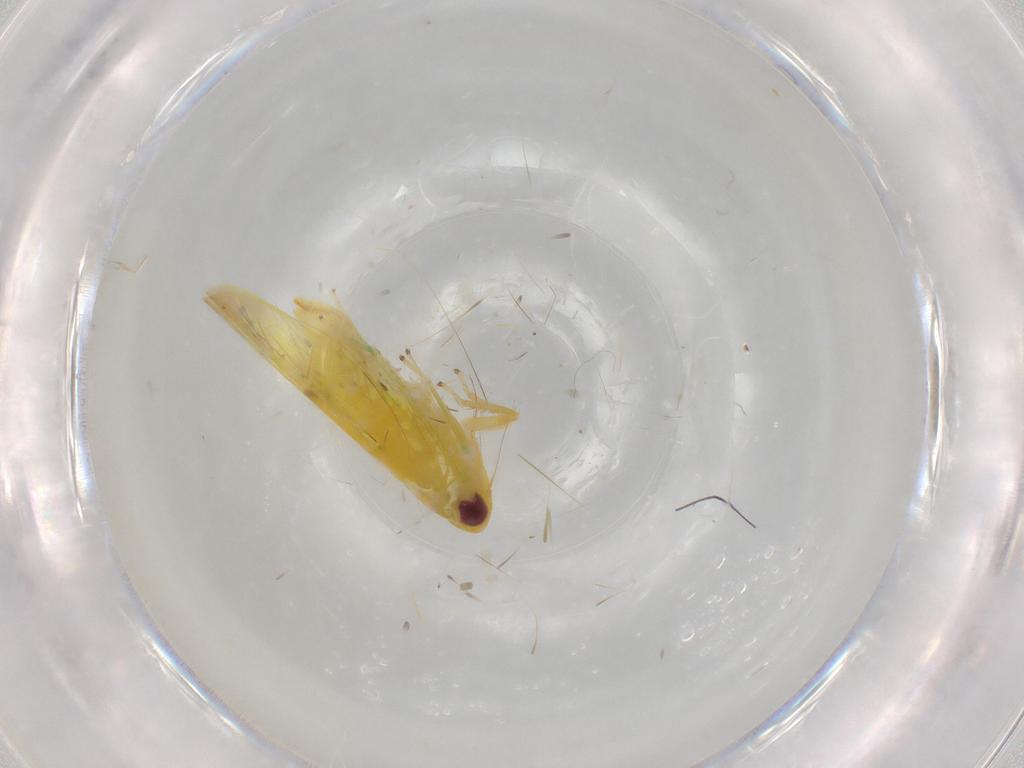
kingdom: Animalia
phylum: Arthropoda
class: Insecta
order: Hemiptera
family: Cicadellidae
